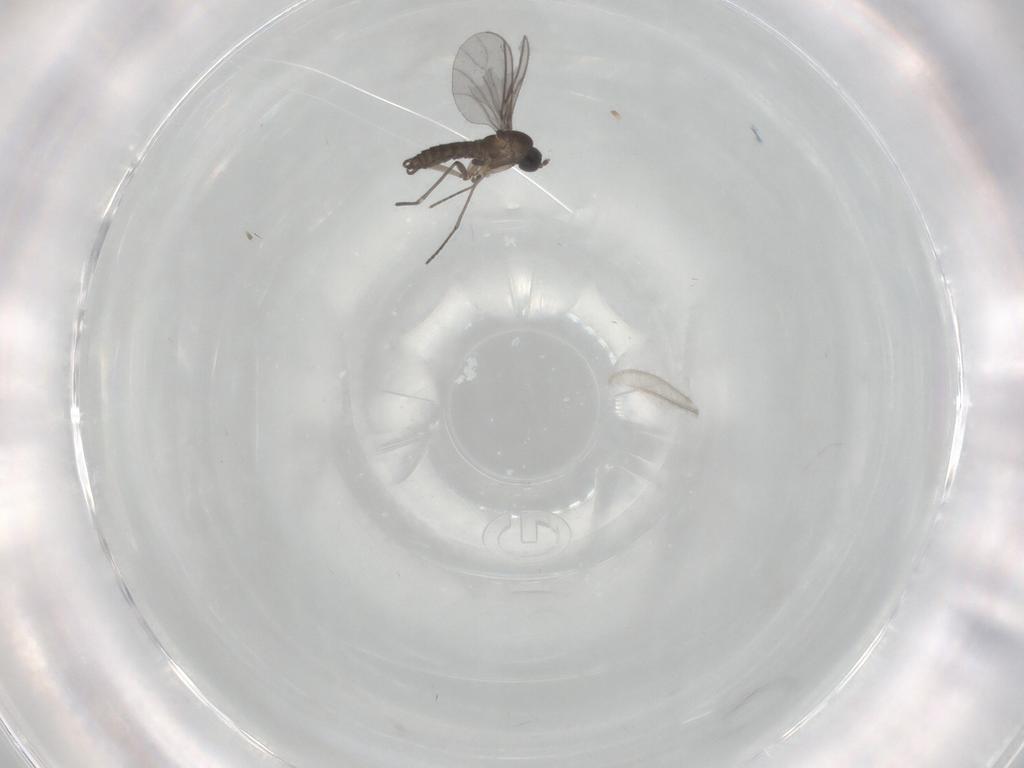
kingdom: Animalia
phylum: Arthropoda
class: Insecta
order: Diptera
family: Sciaridae
